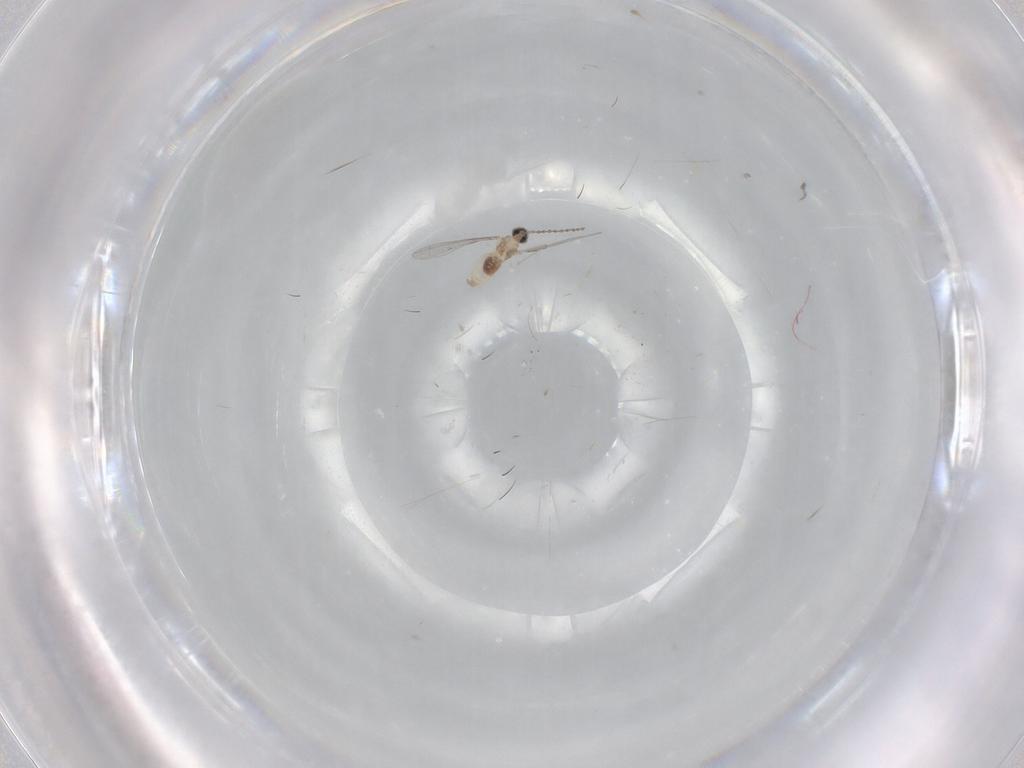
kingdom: Animalia
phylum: Arthropoda
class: Insecta
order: Diptera
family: Cecidomyiidae
